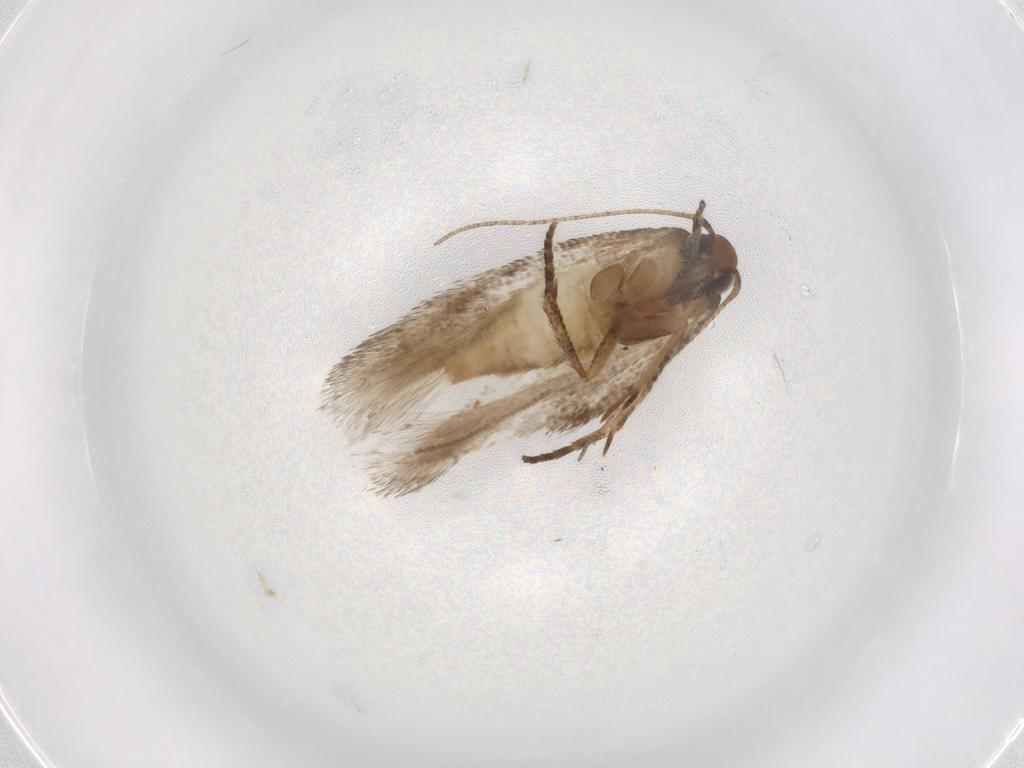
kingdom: Animalia
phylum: Arthropoda
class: Insecta
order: Lepidoptera
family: Gelechiidae
